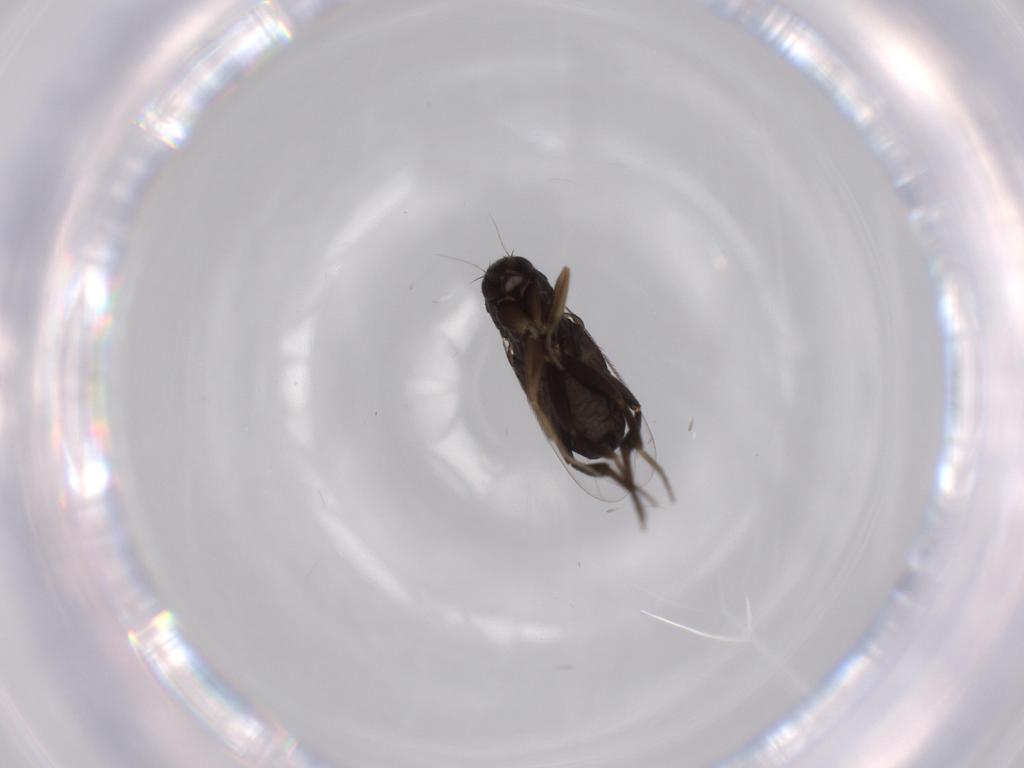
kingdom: Animalia
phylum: Arthropoda
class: Insecta
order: Diptera
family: Phoridae
